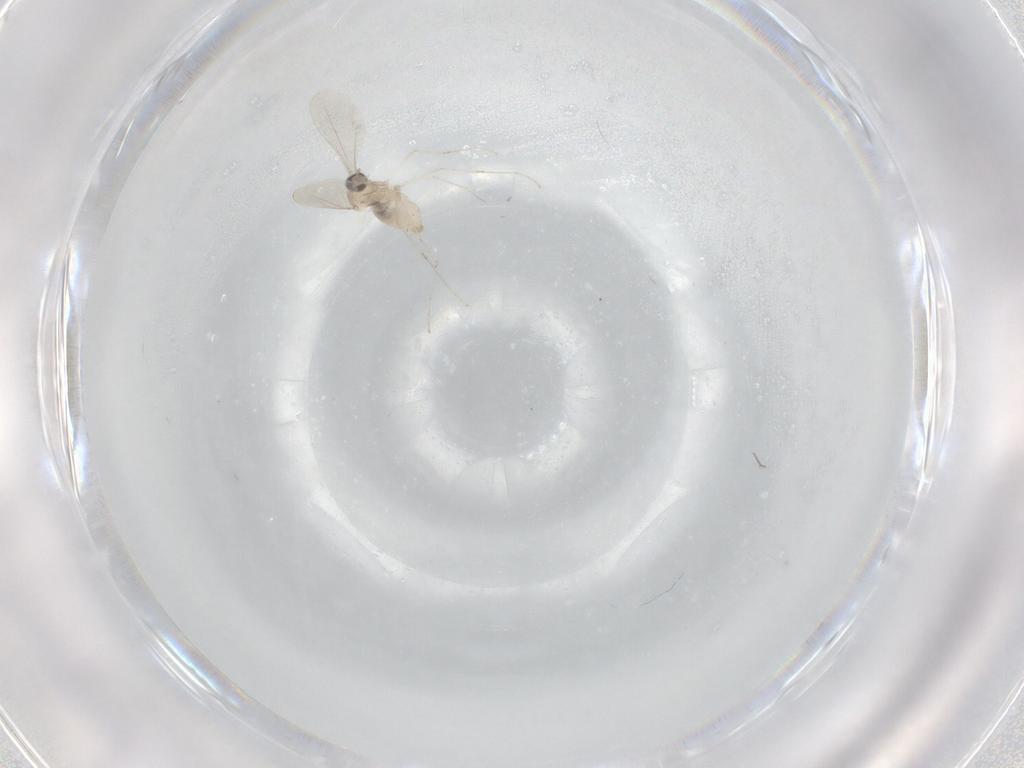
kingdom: Animalia
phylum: Arthropoda
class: Insecta
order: Diptera
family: Cecidomyiidae
